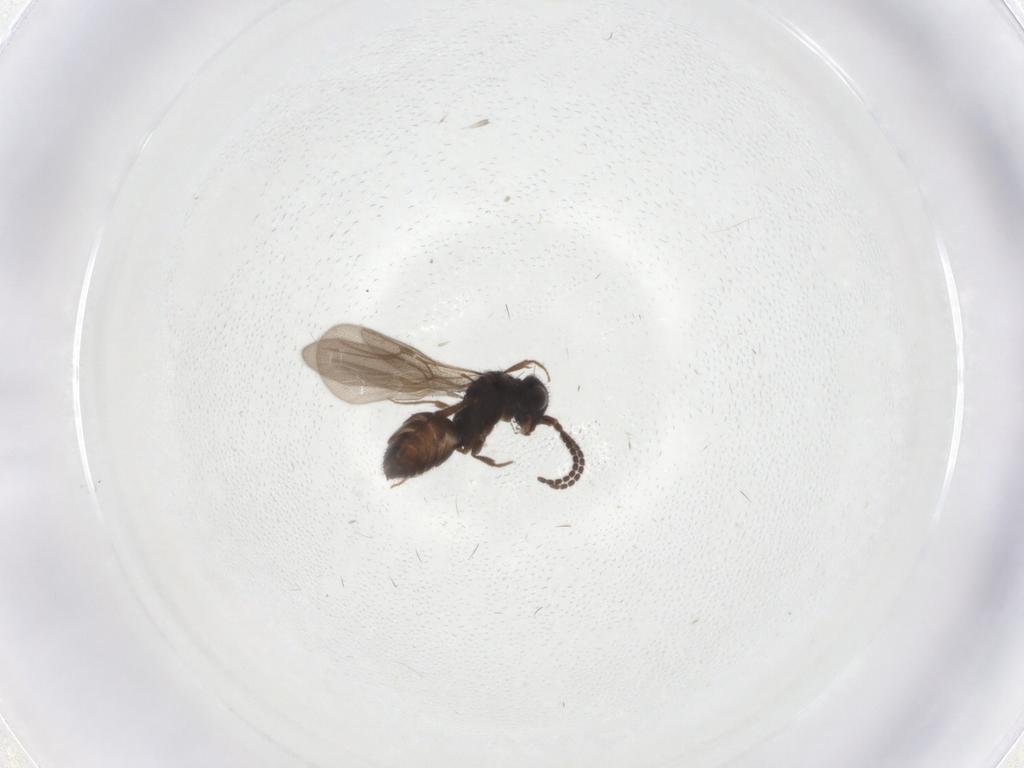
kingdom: Animalia
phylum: Arthropoda
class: Insecta
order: Hymenoptera
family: Bethylidae
